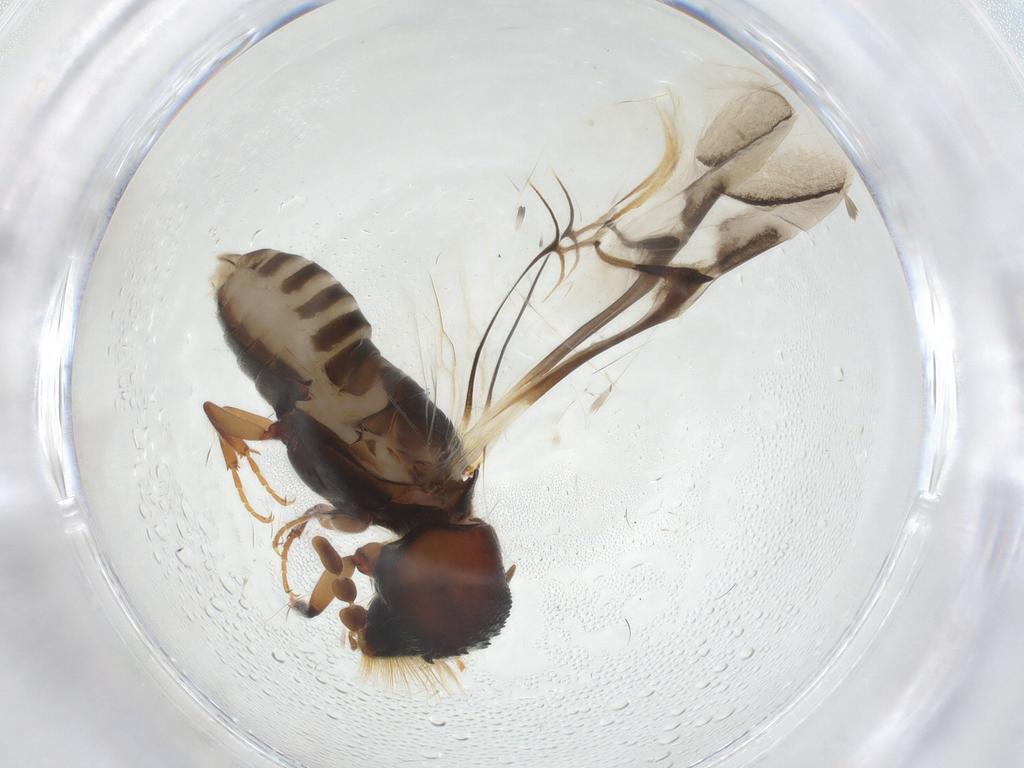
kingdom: Animalia
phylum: Arthropoda
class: Insecta
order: Coleoptera
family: Bostrichidae
